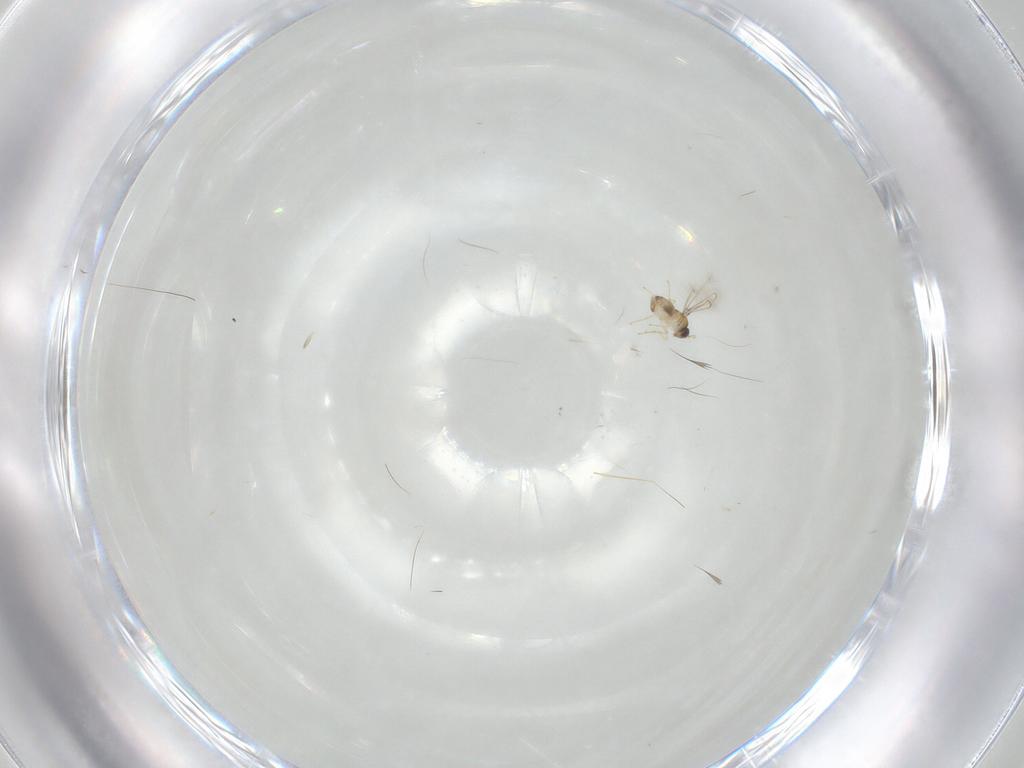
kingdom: Animalia
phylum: Arthropoda
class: Insecta
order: Hymenoptera
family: Mymaridae
